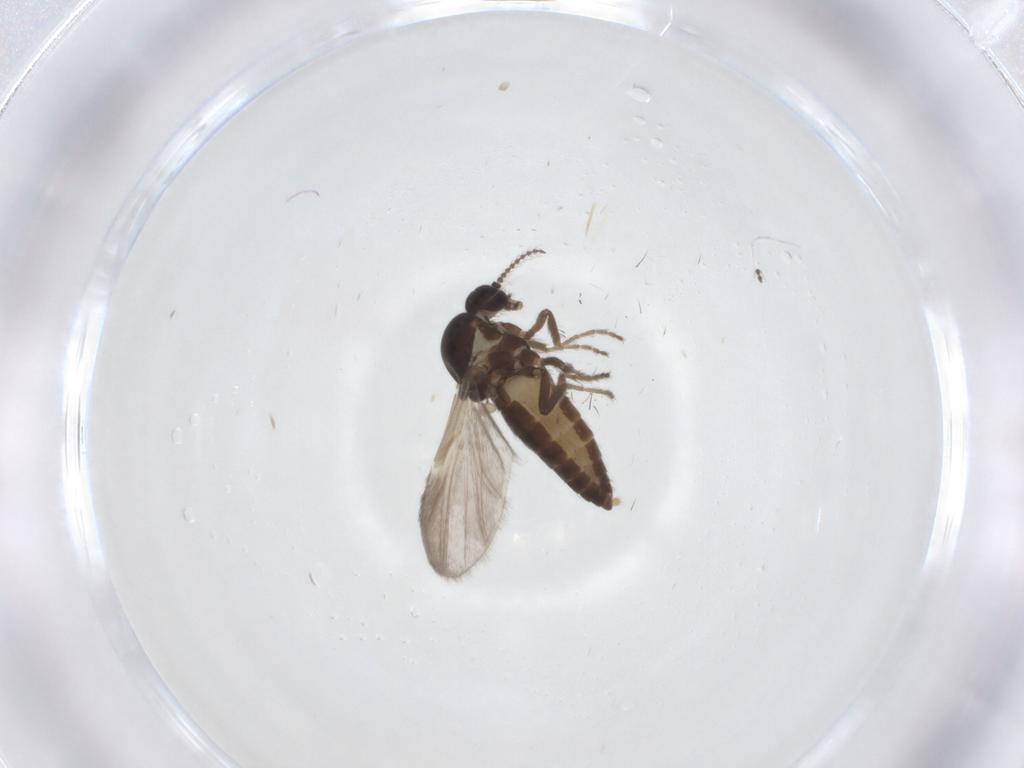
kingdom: Animalia
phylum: Arthropoda
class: Insecta
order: Diptera
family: Ceratopogonidae
